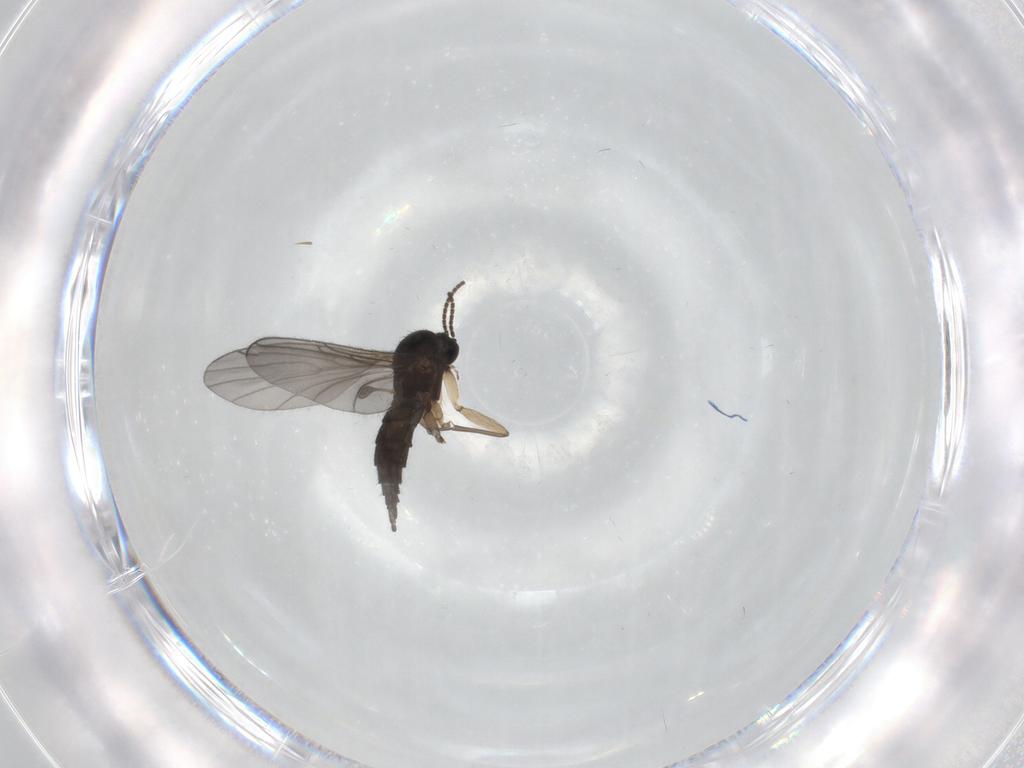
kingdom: Animalia
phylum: Arthropoda
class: Insecta
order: Diptera
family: Sciaridae
